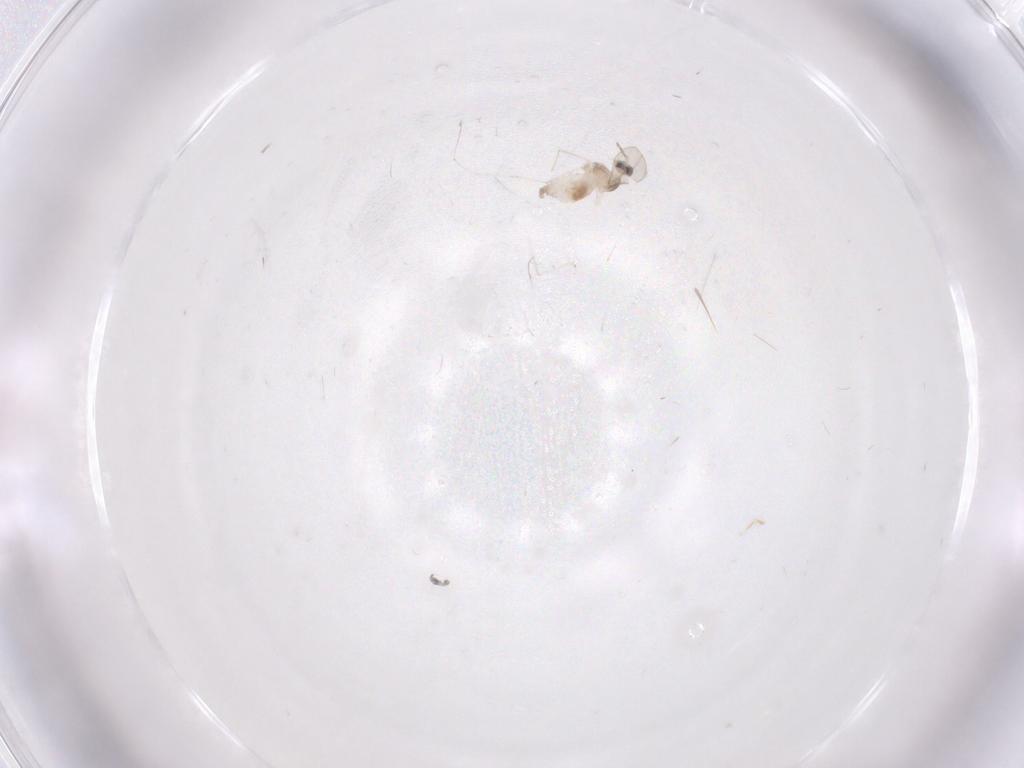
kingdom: Animalia
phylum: Arthropoda
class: Insecta
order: Diptera
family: Cecidomyiidae
